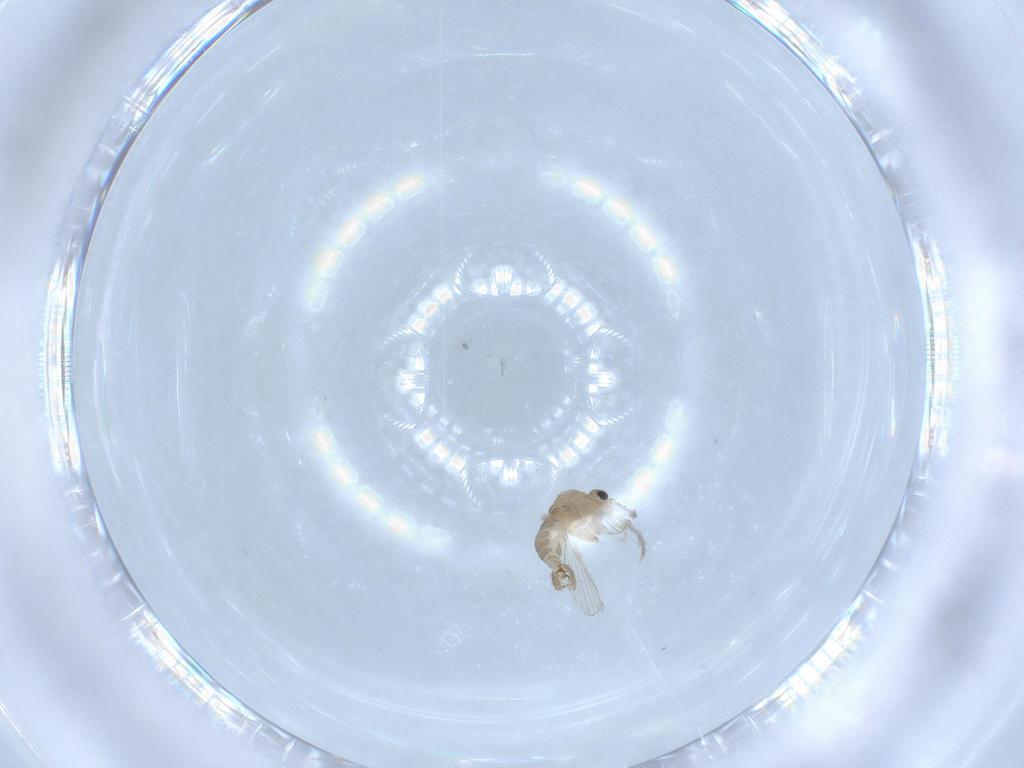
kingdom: Animalia
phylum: Arthropoda
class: Insecta
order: Diptera
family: Psychodidae
